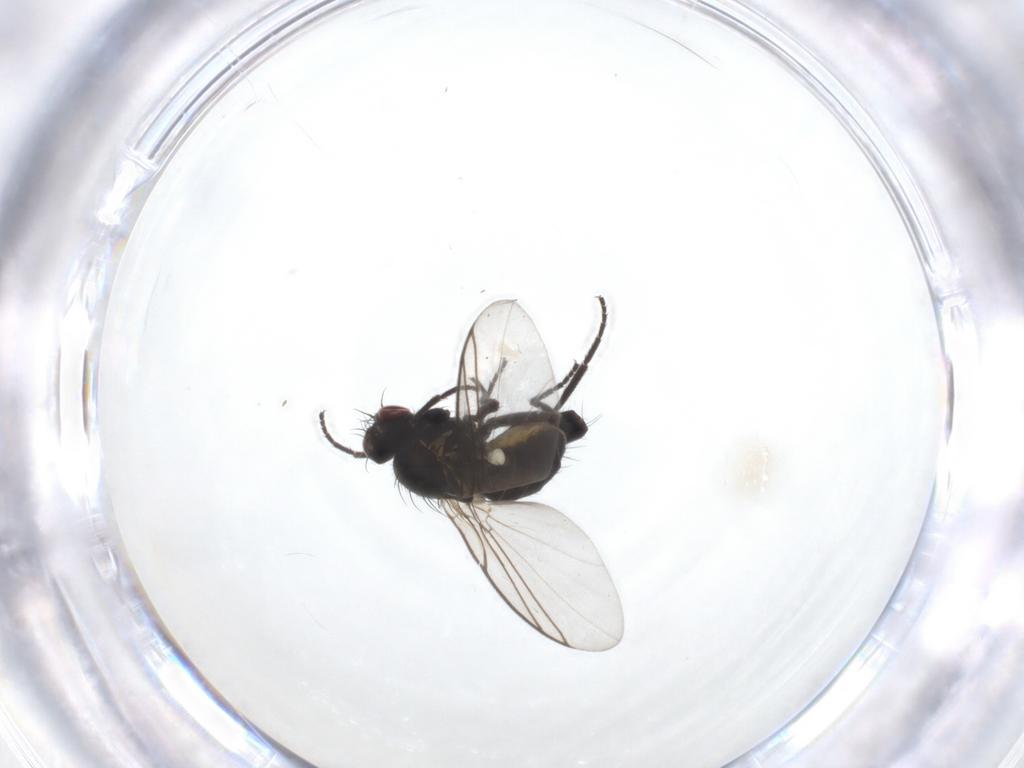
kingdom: Animalia
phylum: Arthropoda
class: Insecta
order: Diptera
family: Agromyzidae
